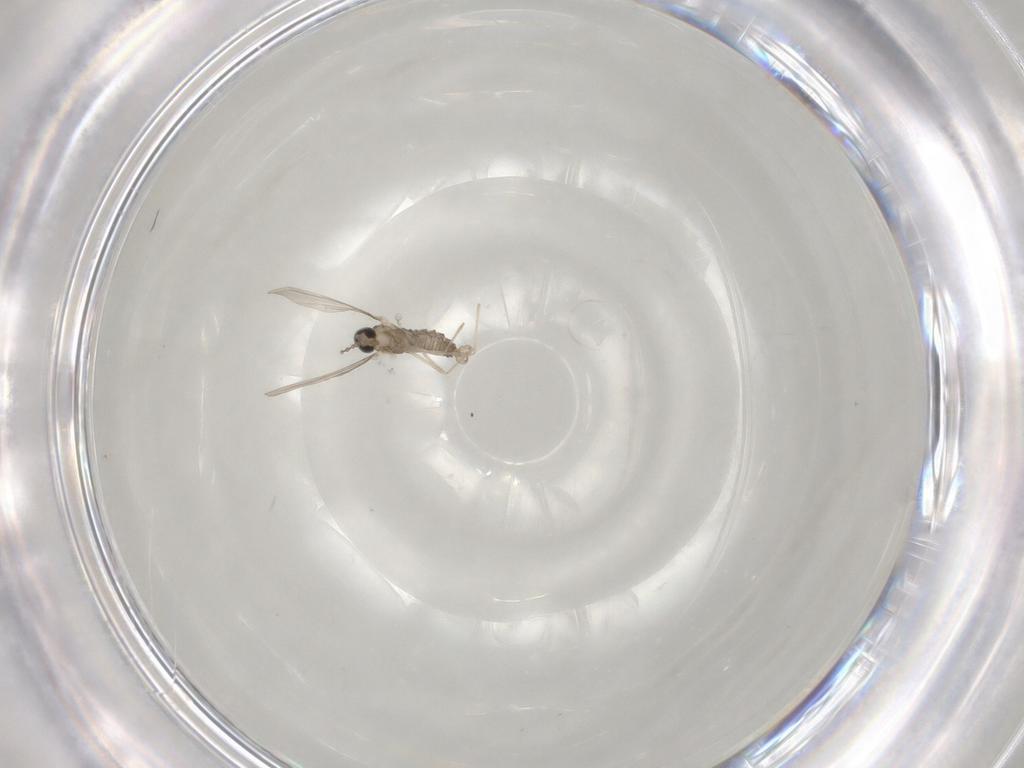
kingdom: Animalia
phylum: Arthropoda
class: Insecta
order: Diptera
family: Cecidomyiidae
